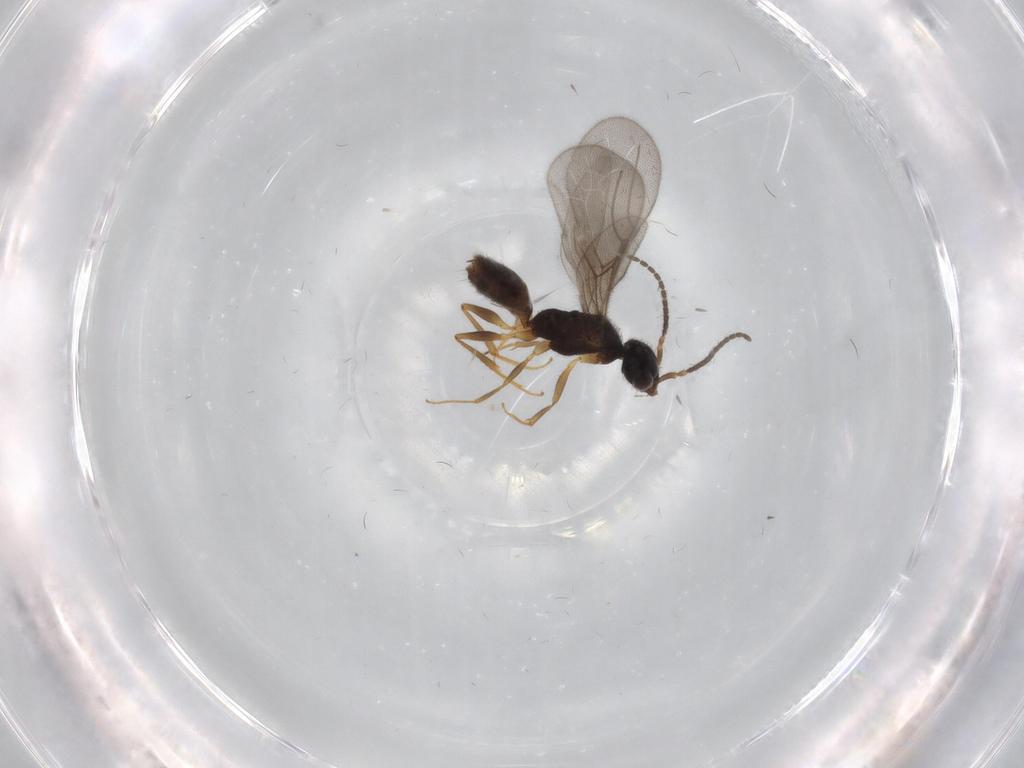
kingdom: Animalia
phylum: Arthropoda
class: Insecta
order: Hymenoptera
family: Bethylidae
